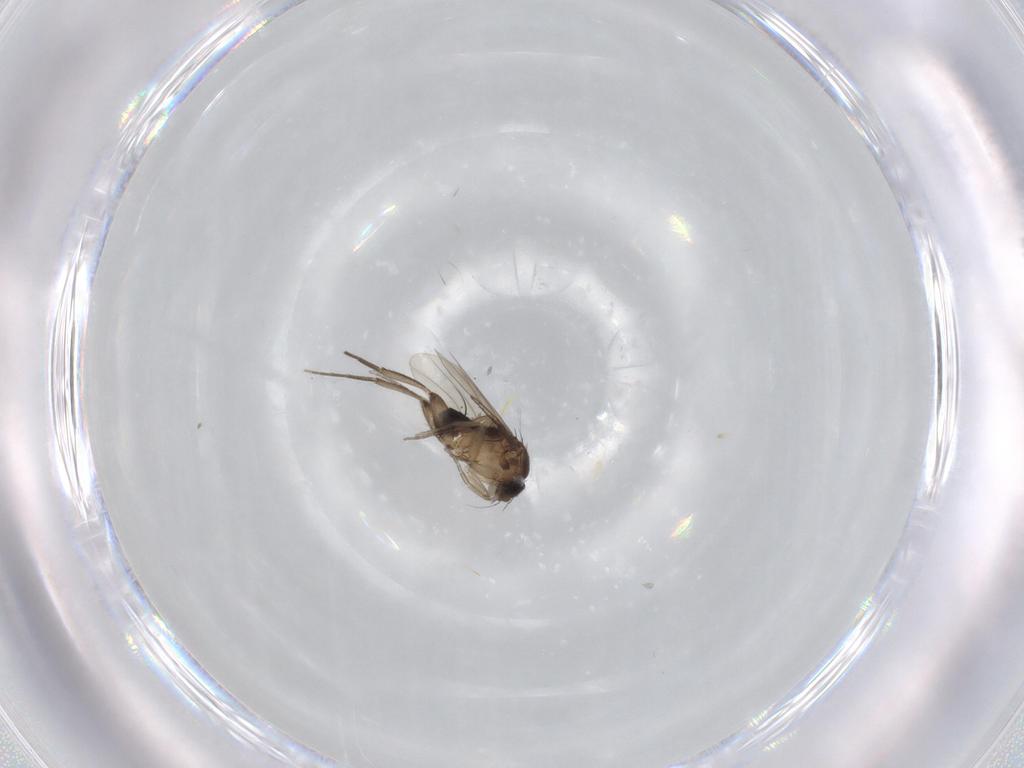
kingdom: Animalia
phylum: Arthropoda
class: Insecta
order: Diptera
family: Phoridae
